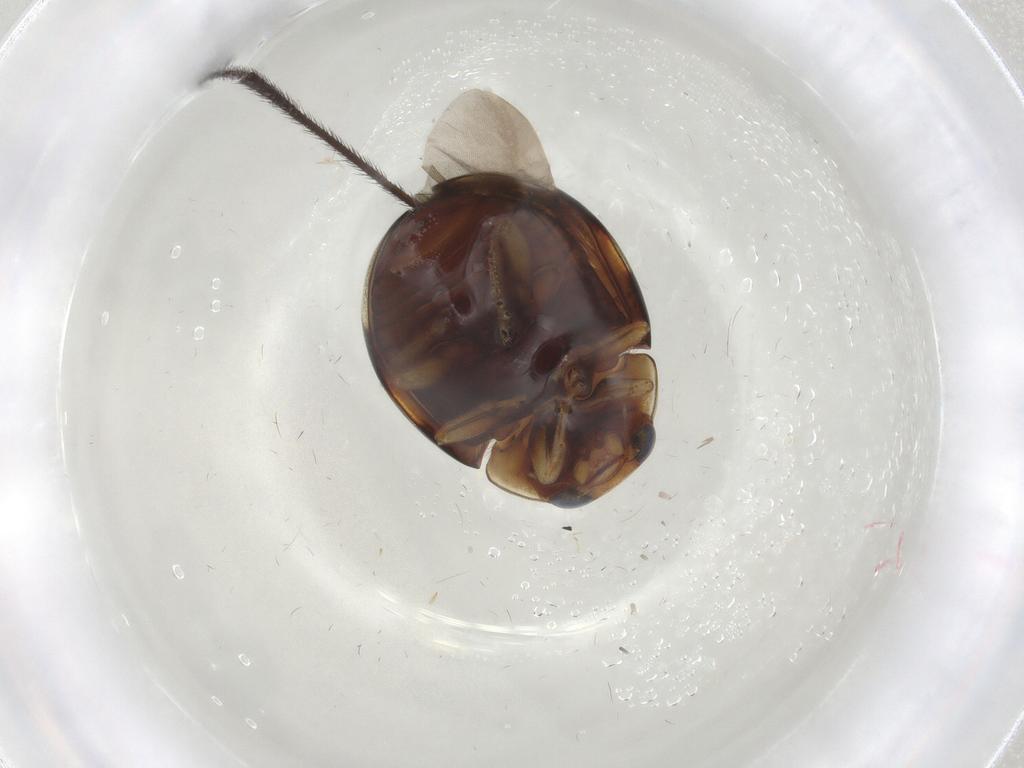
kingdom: Animalia
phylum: Arthropoda
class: Insecta
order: Coleoptera
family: Coccinellidae
